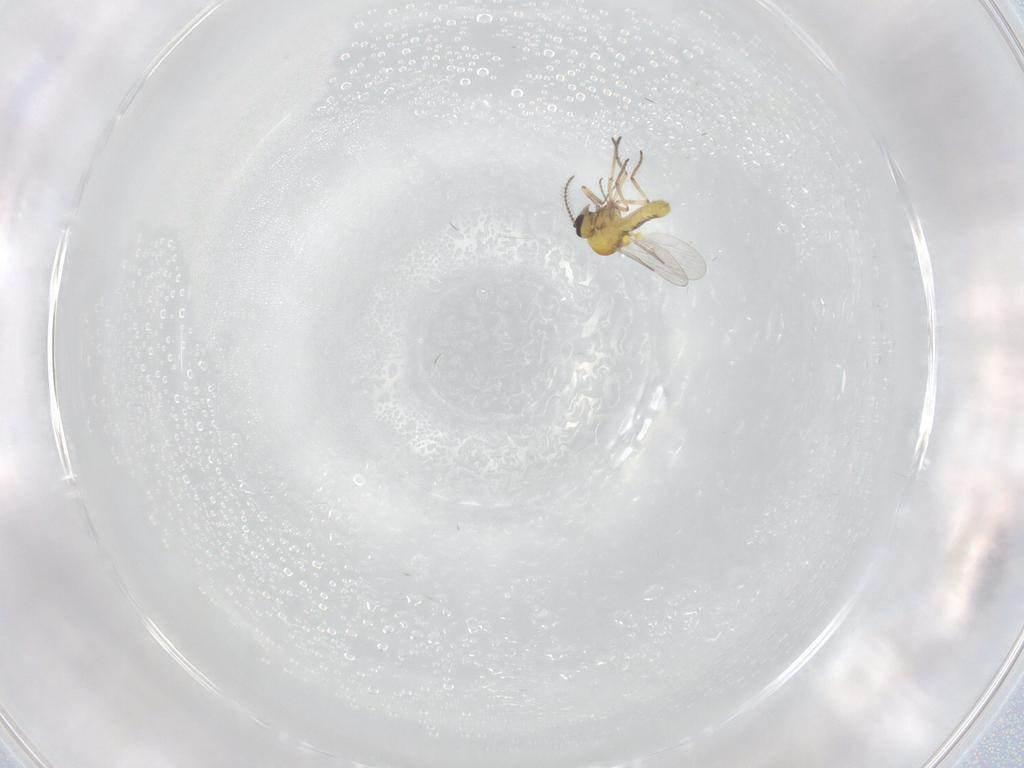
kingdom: Animalia
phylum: Arthropoda
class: Insecta
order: Diptera
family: Ceratopogonidae
